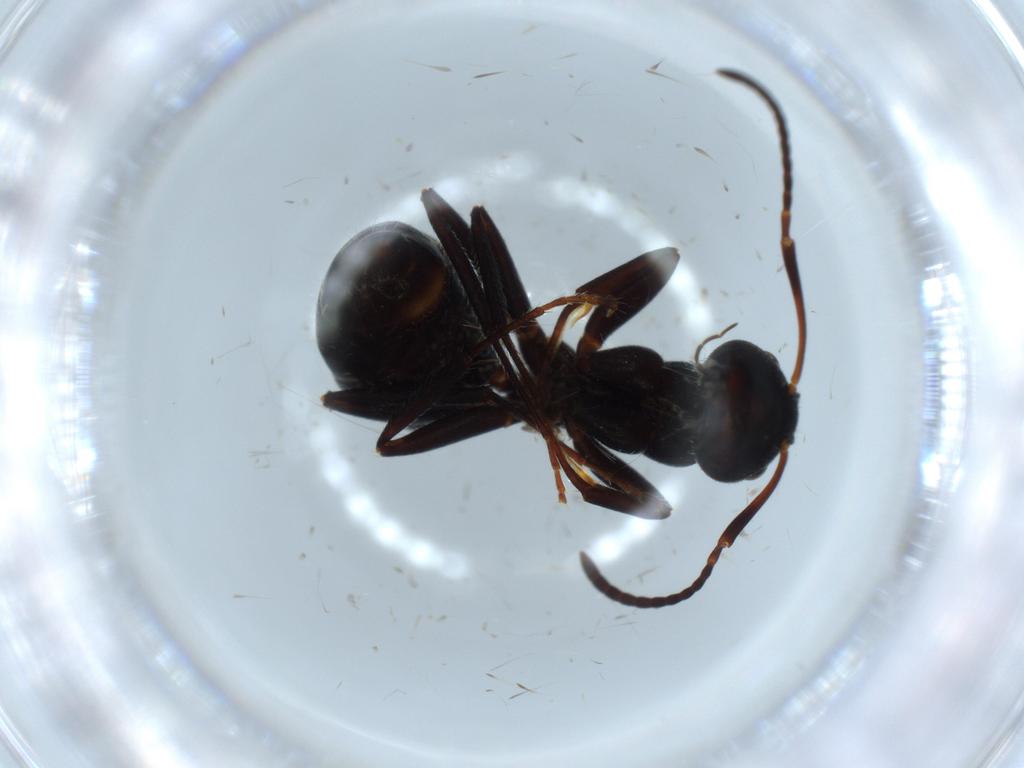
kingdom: Animalia
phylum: Arthropoda
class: Insecta
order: Hymenoptera
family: Formicidae
